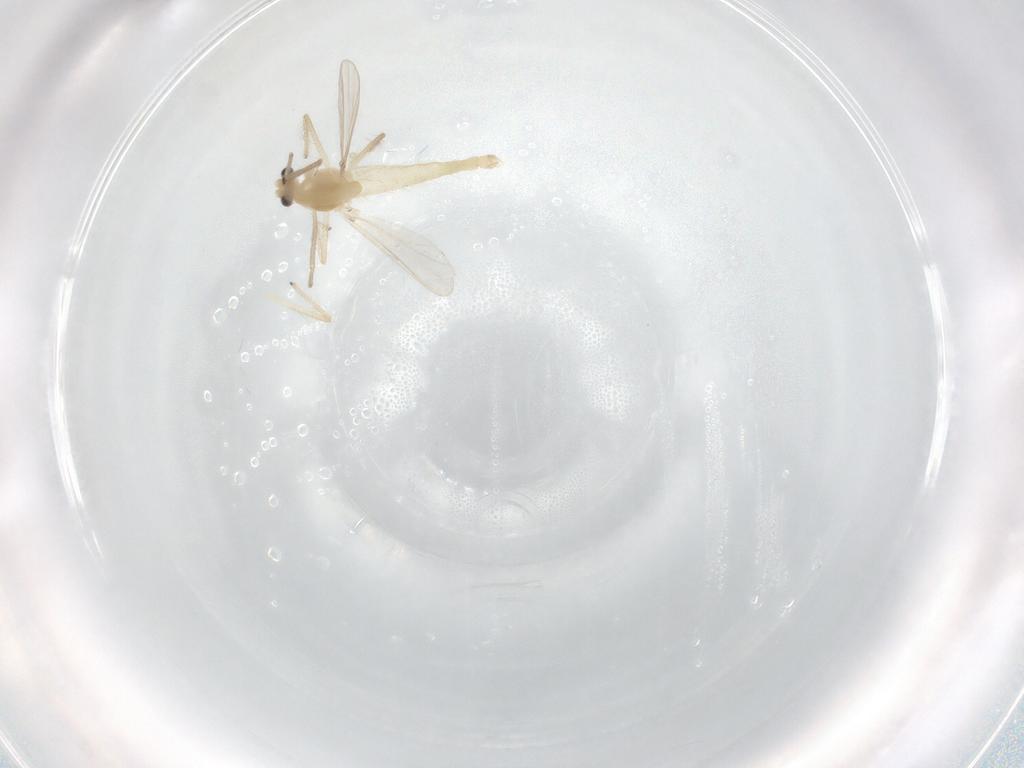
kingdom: Animalia
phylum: Arthropoda
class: Insecta
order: Diptera
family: Chironomidae
